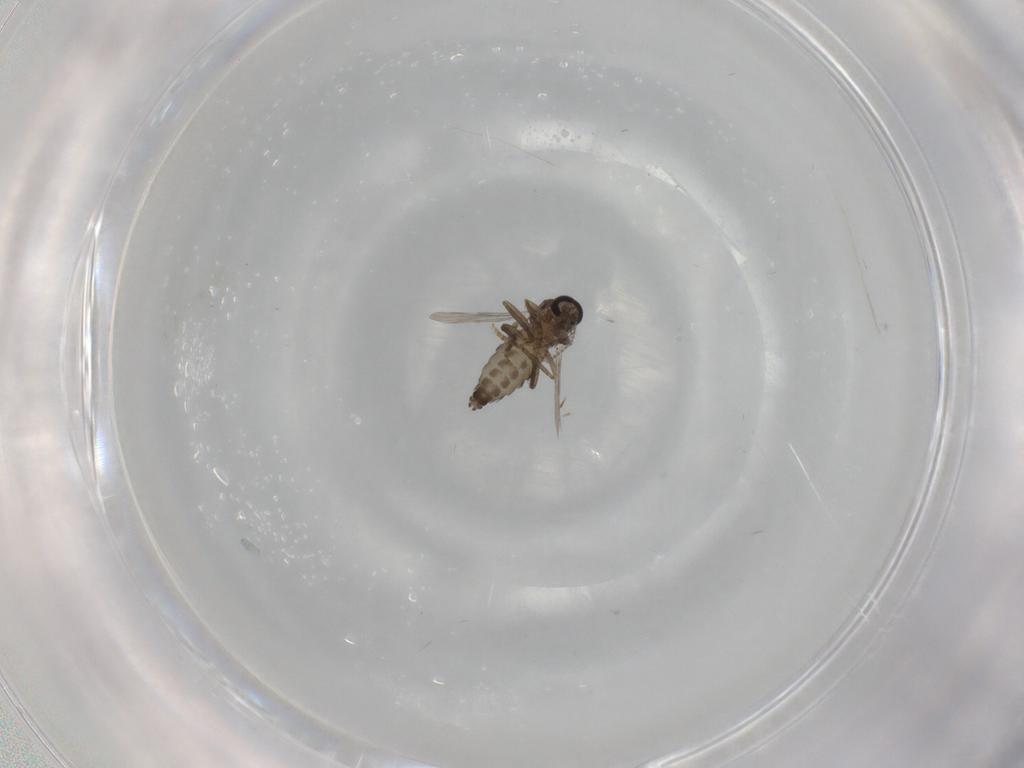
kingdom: Animalia
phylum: Arthropoda
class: Insecta
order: Diptera
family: Ceratopogonidae
